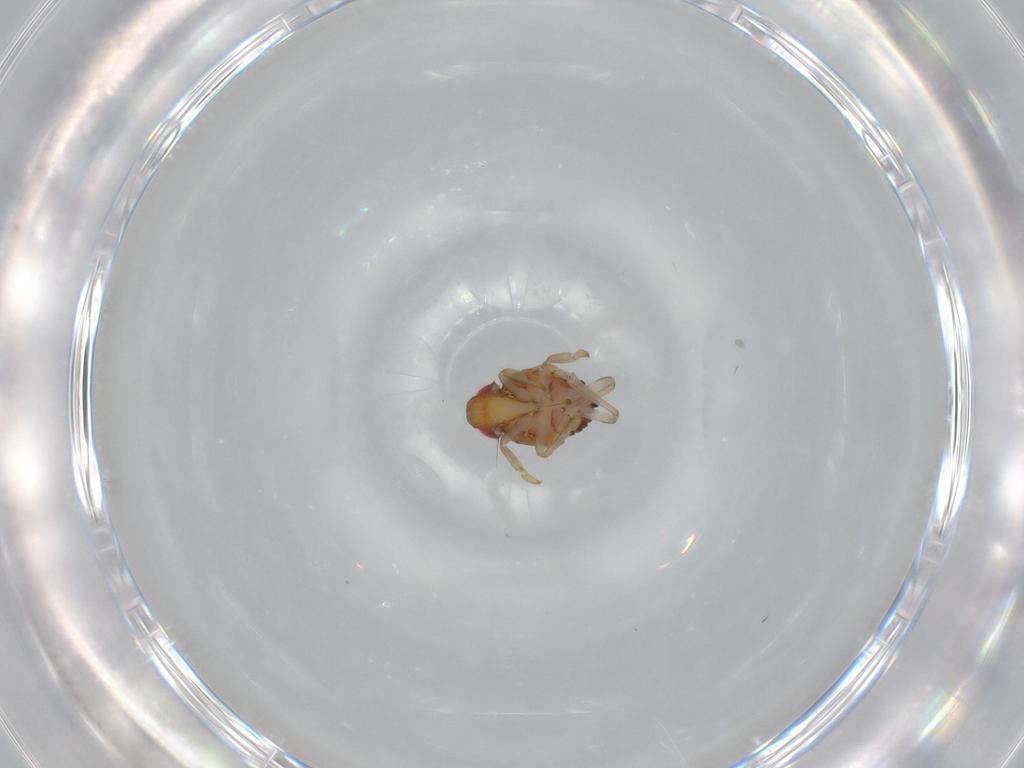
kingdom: Animalia
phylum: Arthropoda
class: Insecta
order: Hemiptera
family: Issidae
